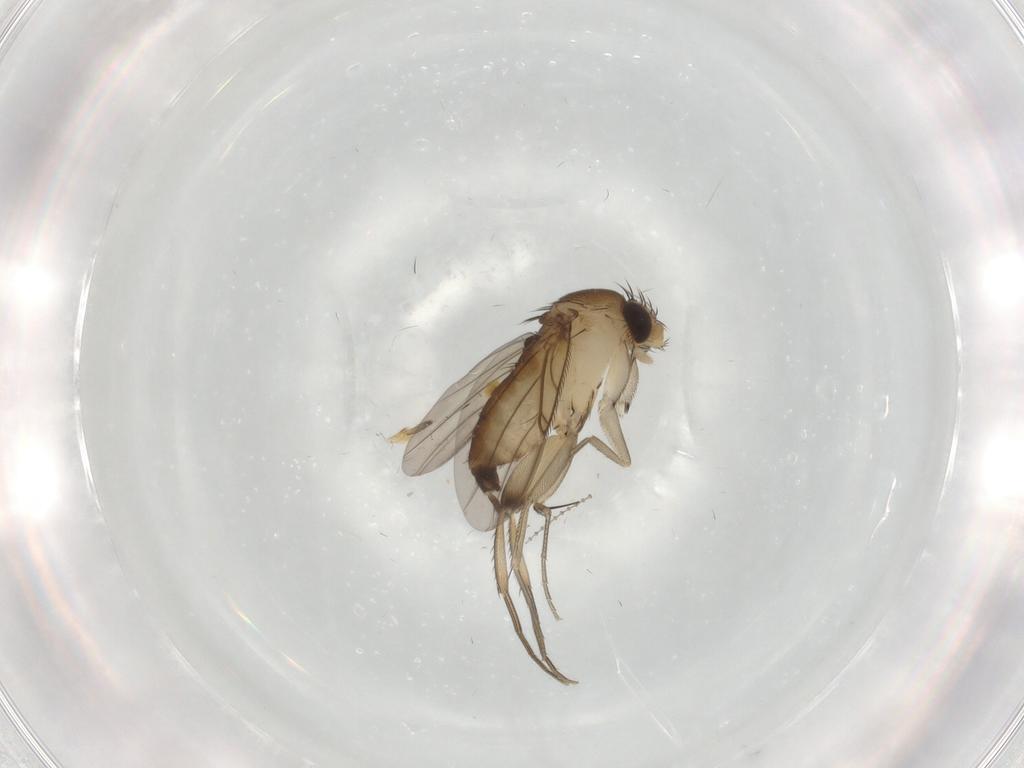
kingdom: Animalia
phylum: Arthropoda
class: Insecta
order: Diptera
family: Phoridae
